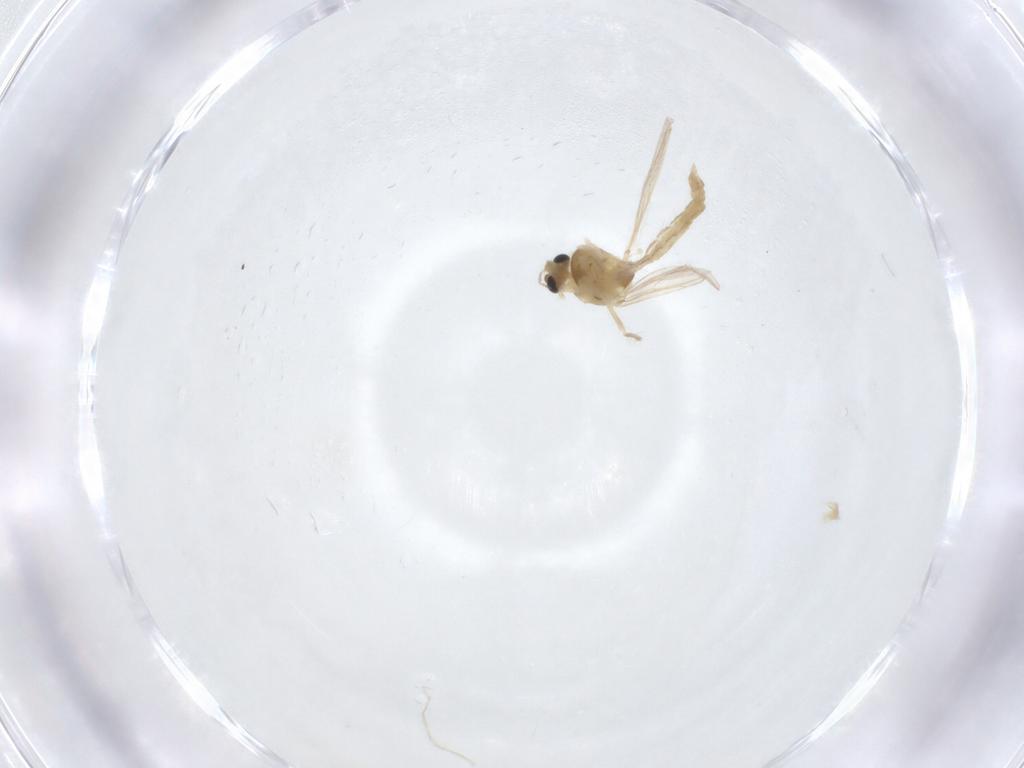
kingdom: Animalia
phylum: Arthropoda
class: Insecta
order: Diptera
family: Chironomidae
